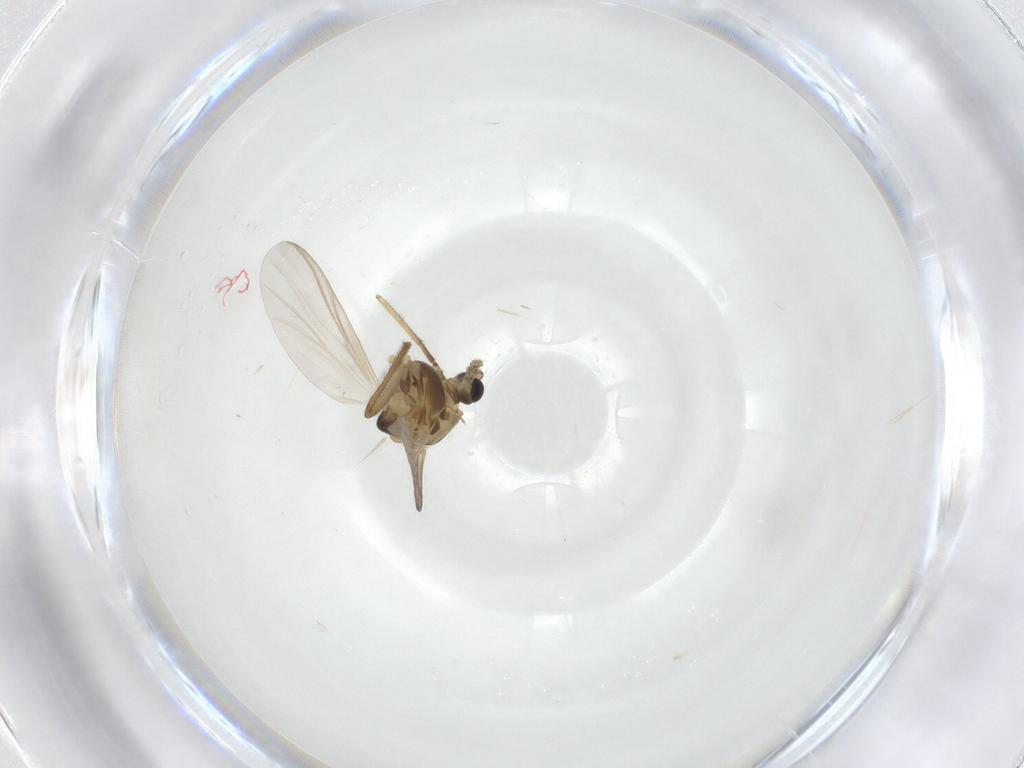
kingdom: Animalia
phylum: Arthropoda
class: Insecta
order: Diptera
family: Chironomidae
